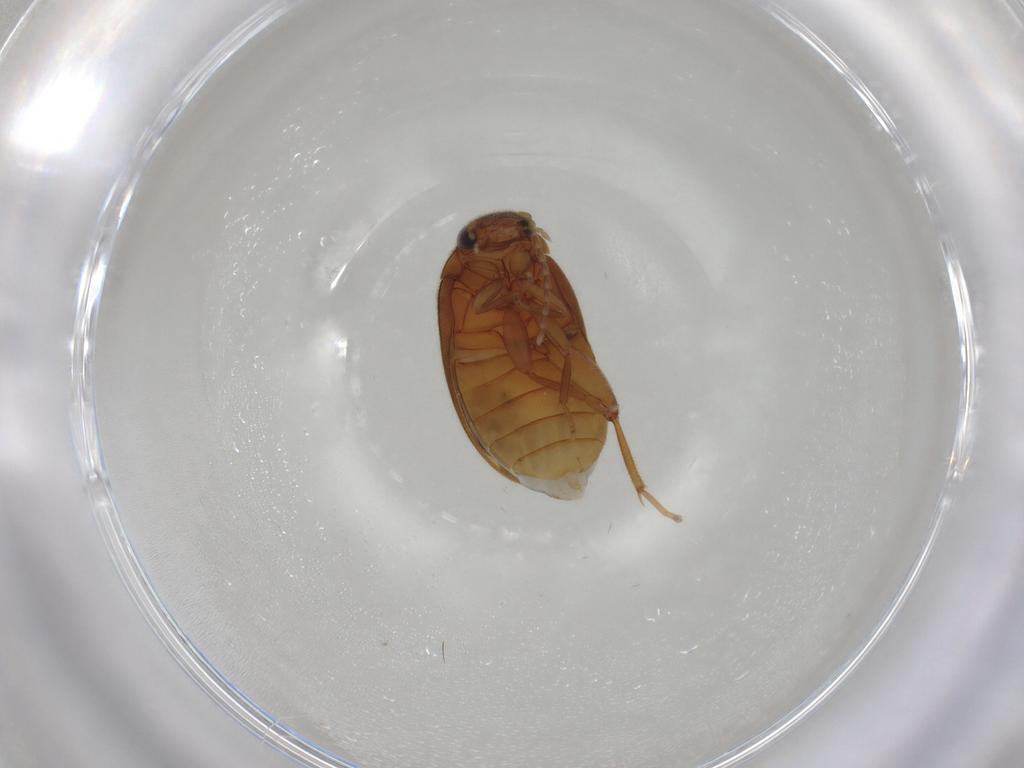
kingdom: Animalia
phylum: Arthropoda
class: Insecta
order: Coleoptera
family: Scirtidae
